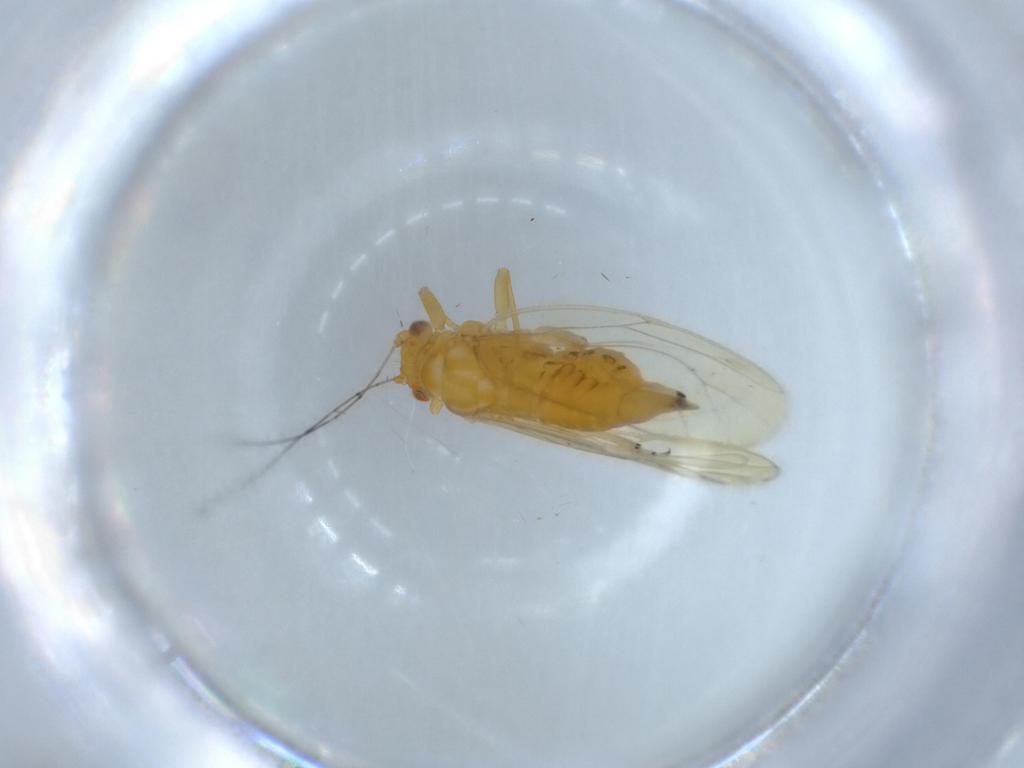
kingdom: Animalia
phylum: Arthropoda
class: Insecta
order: Hemiptera
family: Psyllidae
